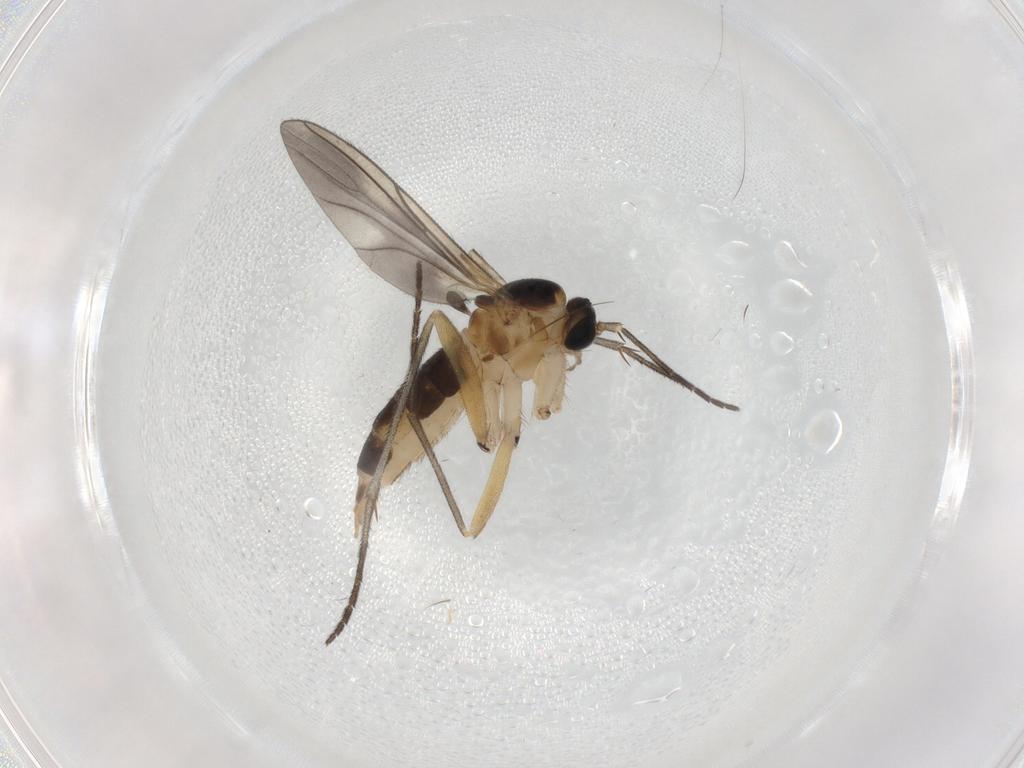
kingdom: Animalia
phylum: Arthropoda
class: Insecta
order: Diptera
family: Sciaridae
